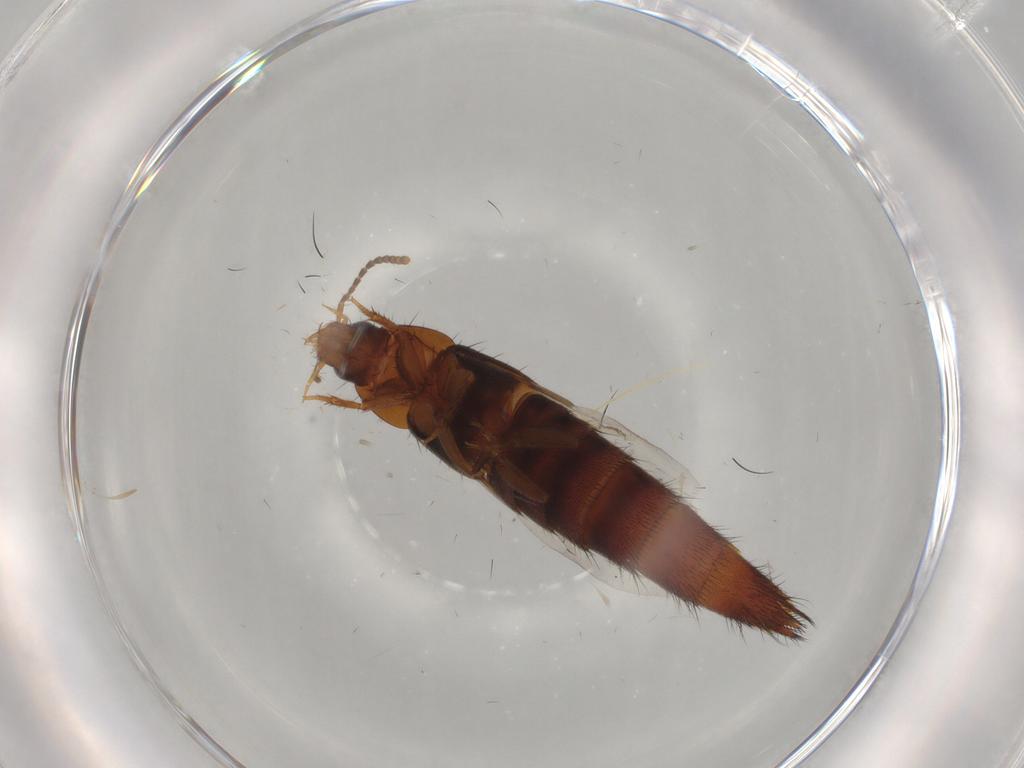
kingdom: Animalia
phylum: Arthropoda
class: Insecta
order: Coleoptera
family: Staphylinidae
